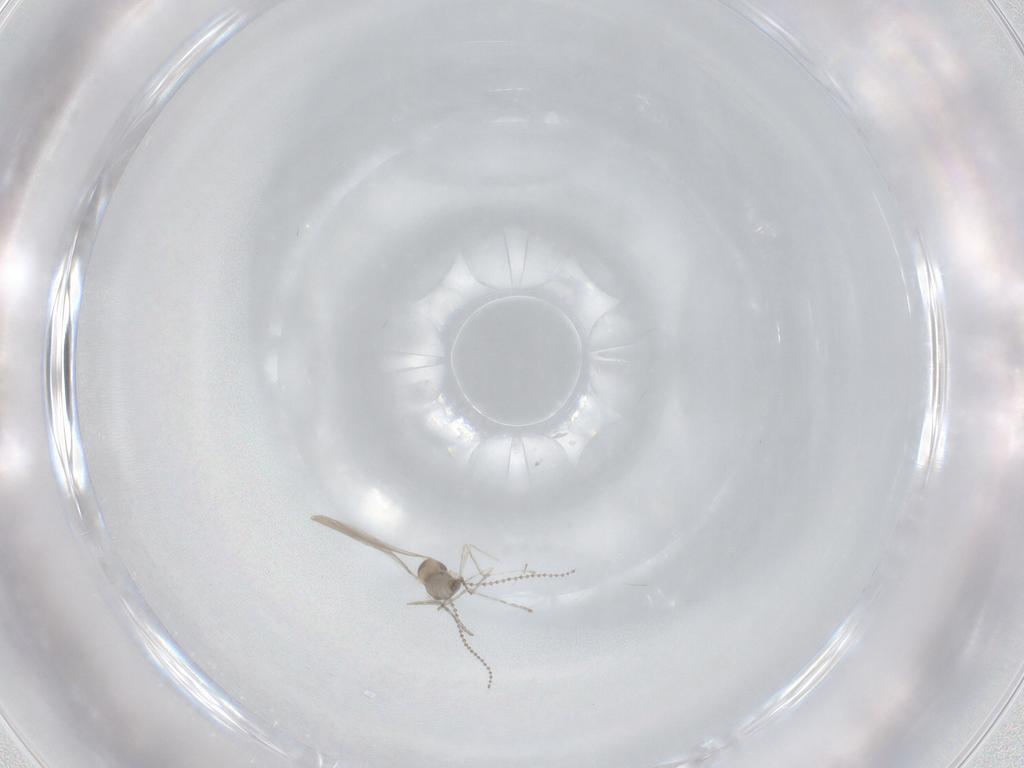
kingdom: Animalia
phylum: Arthropoda
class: Insecta
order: Diptera
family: Cecidomyiidae
